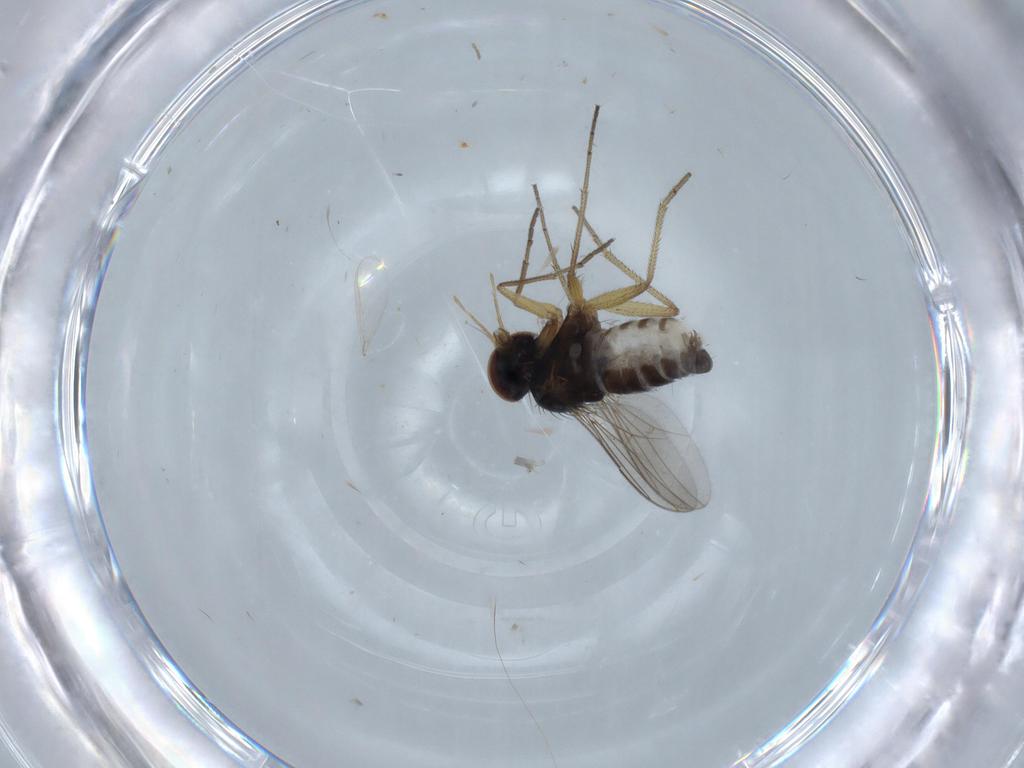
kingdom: Animalia
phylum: Arthropoda
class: Insecta
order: Diptera
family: Dolichopodidae
